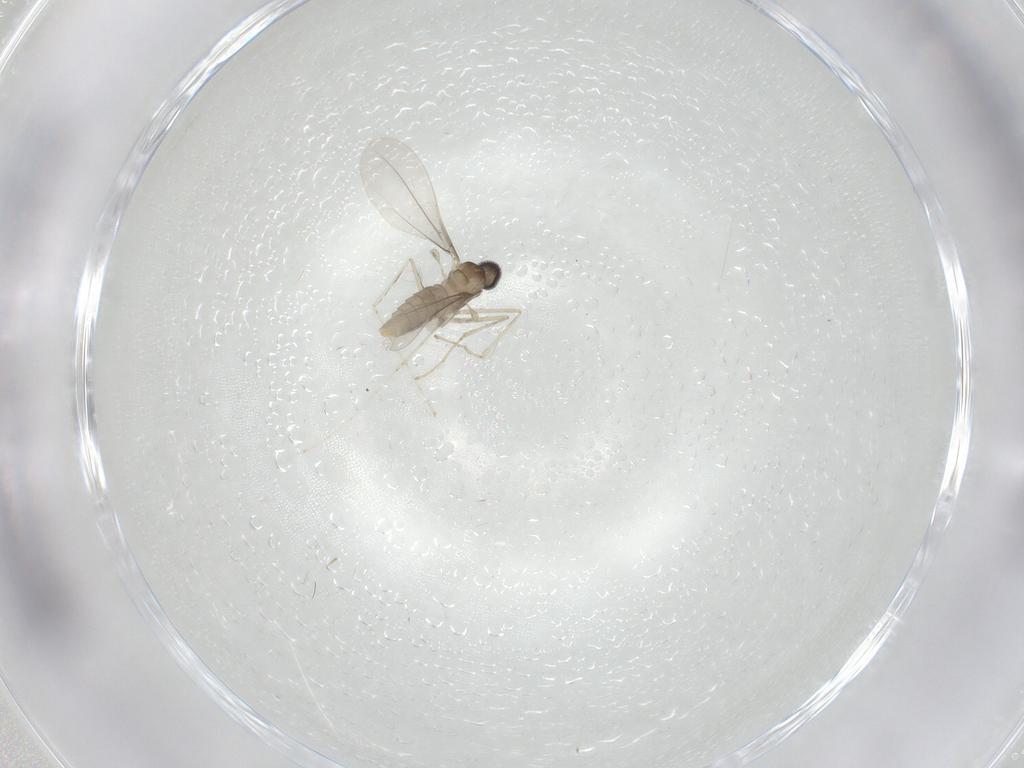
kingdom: Animalia
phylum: Arthropoda
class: Insecta
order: Diptera
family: Cecidomyiidae
